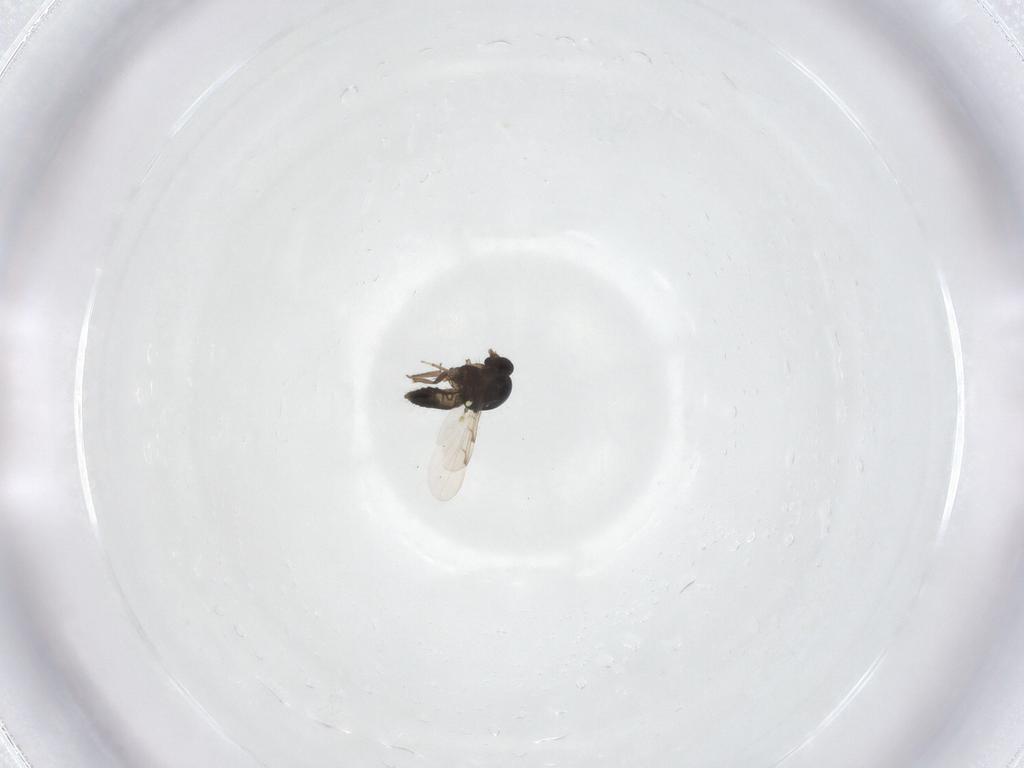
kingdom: Animalia
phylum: Arthropoda
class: Insecta
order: Diptera
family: Ceratopogonidae
